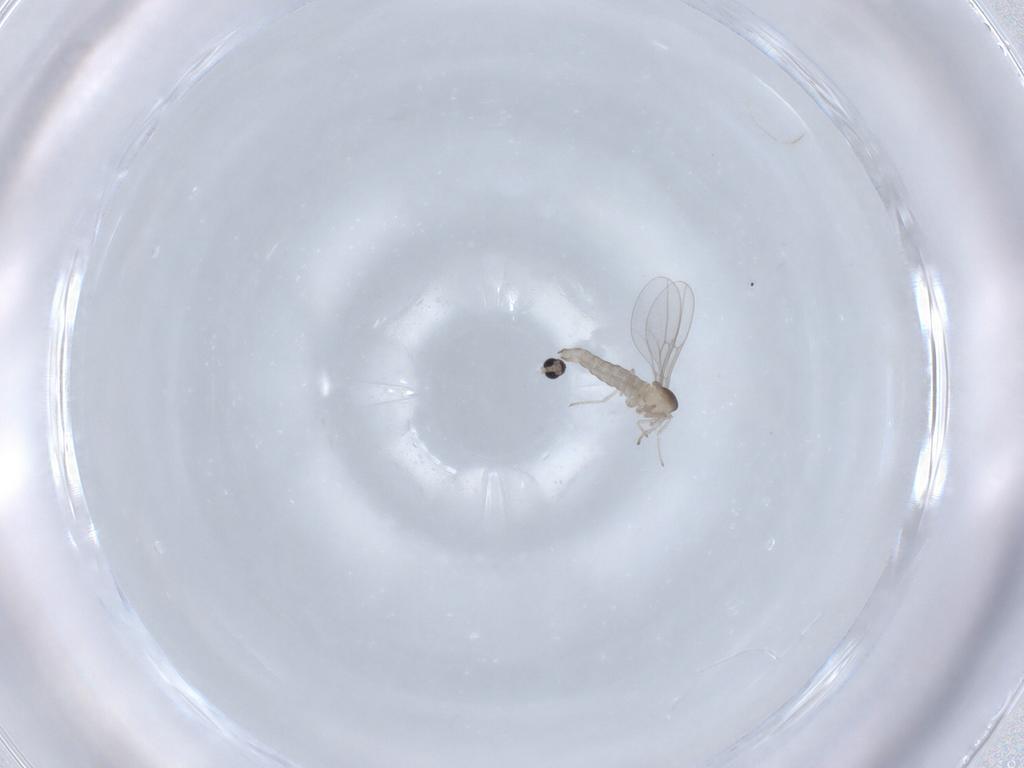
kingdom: Animalia
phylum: Arthropoda
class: Insecta
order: Diptera
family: Cecidomyiidae
